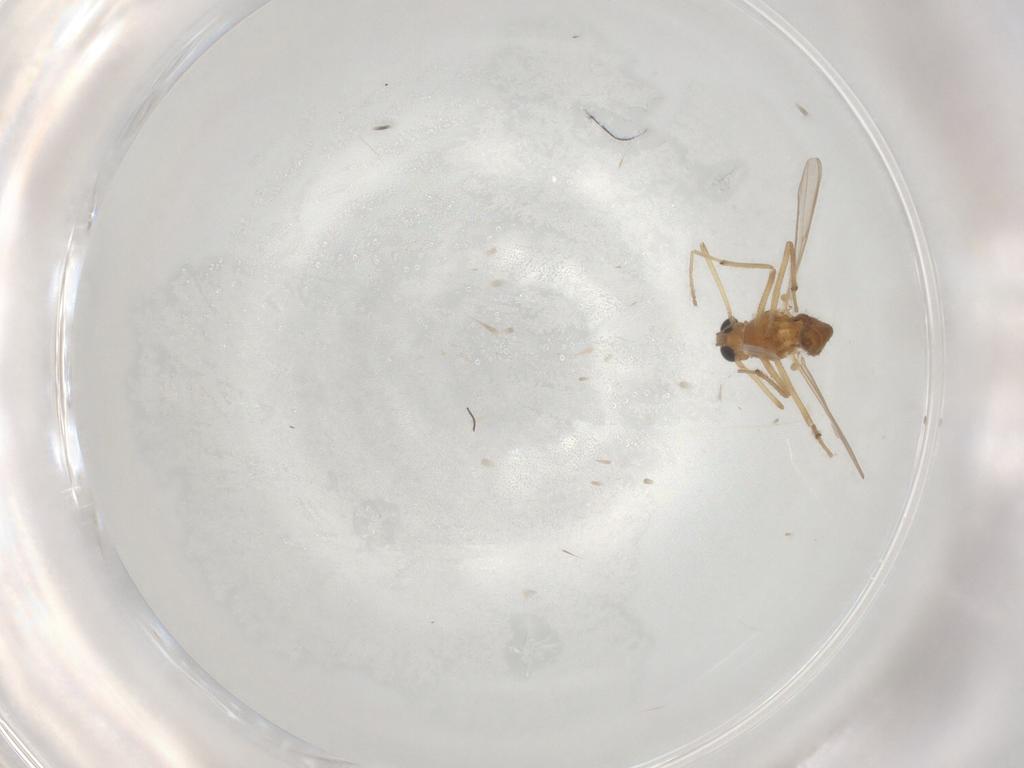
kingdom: Animalia
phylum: Arthropoda
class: Insecta
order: Diptera
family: Chironomidae
